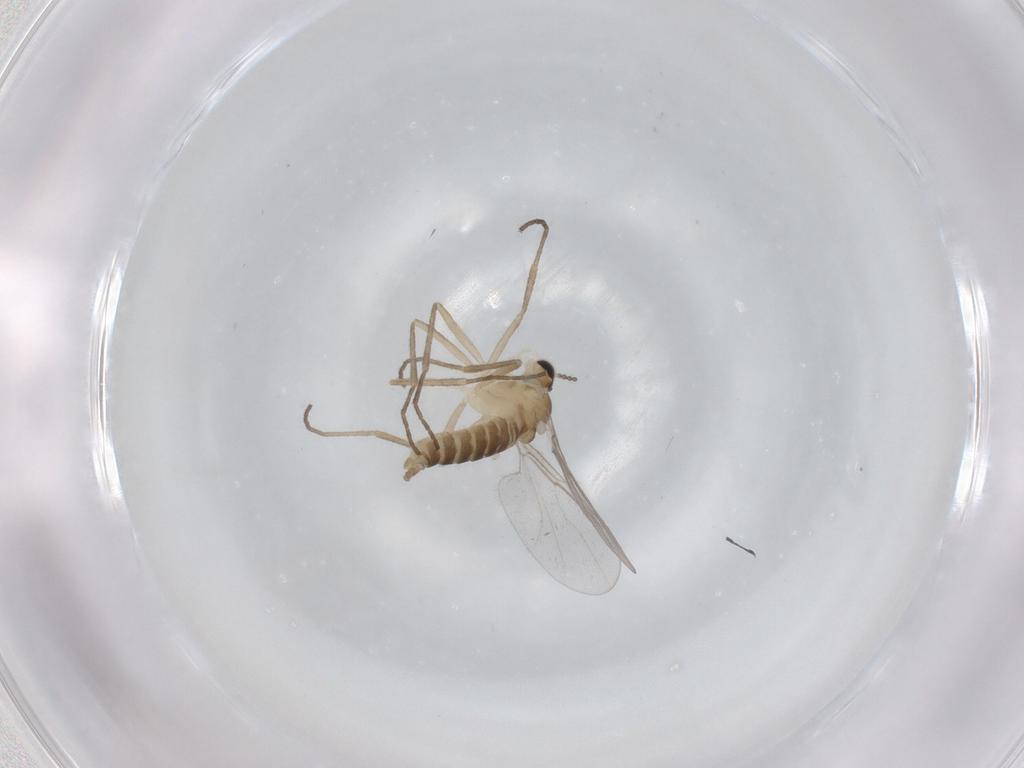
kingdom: Animalia
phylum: Arthropoda
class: Insecta
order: Diptera
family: Cecidomyiidae
